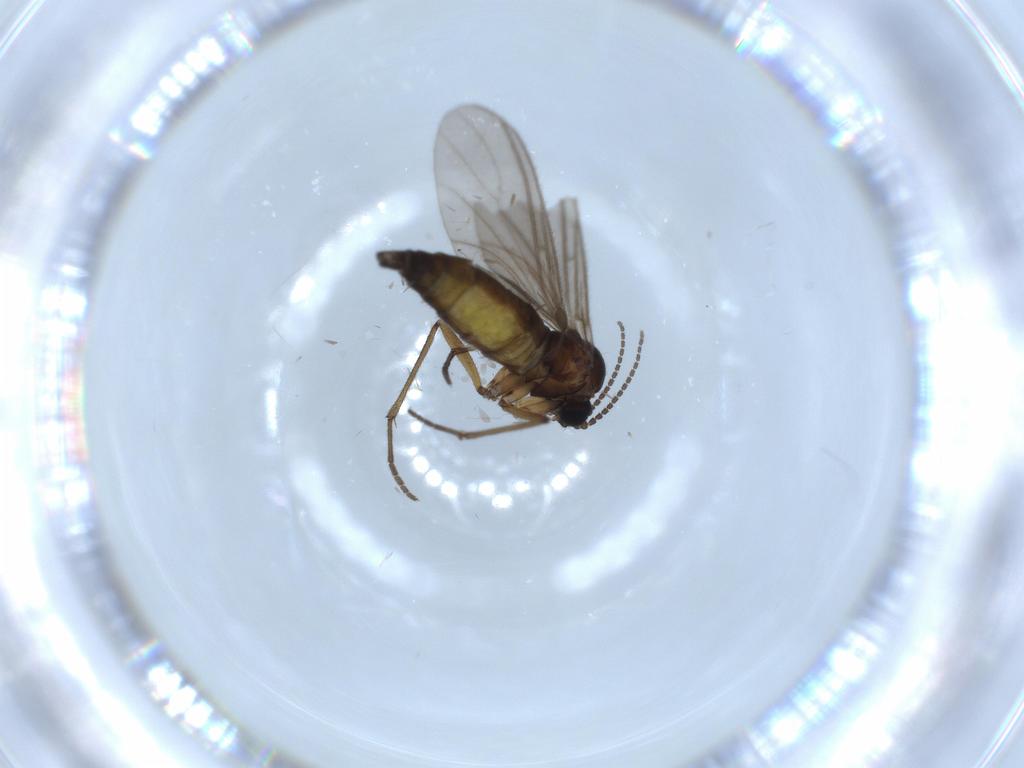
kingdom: Animalia
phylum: Arthropoda
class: Insecta
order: Diptera
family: Sciaridae
